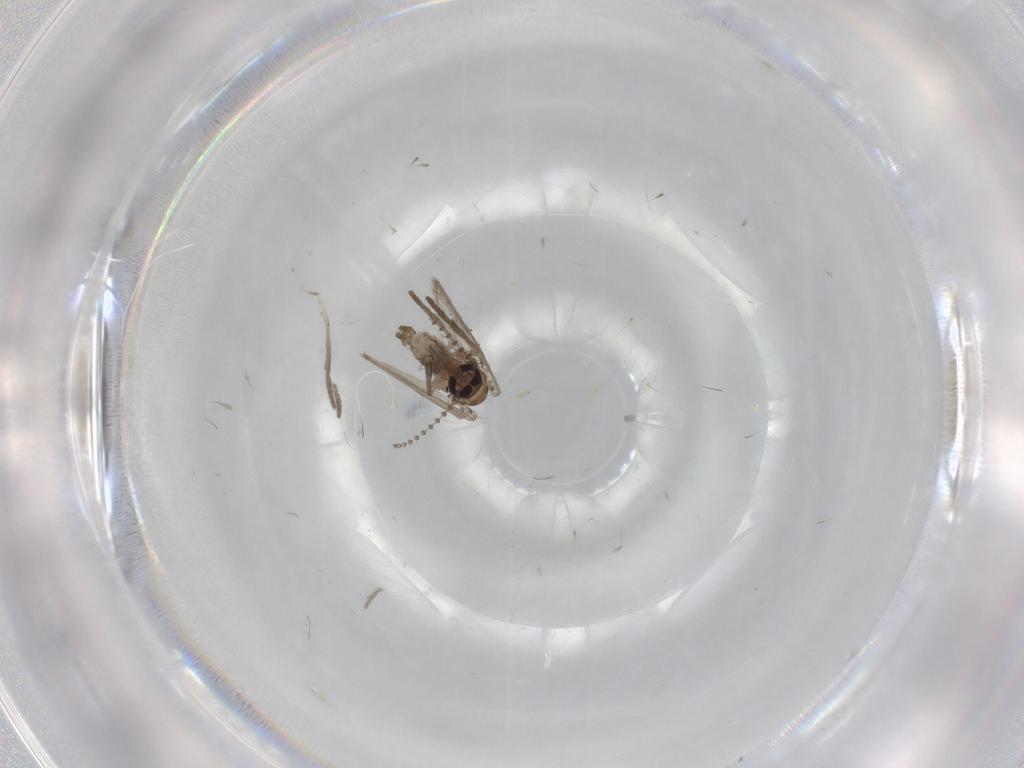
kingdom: Animalia
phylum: Arthropoda
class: Insecta
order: Diptera
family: Psychodidae
